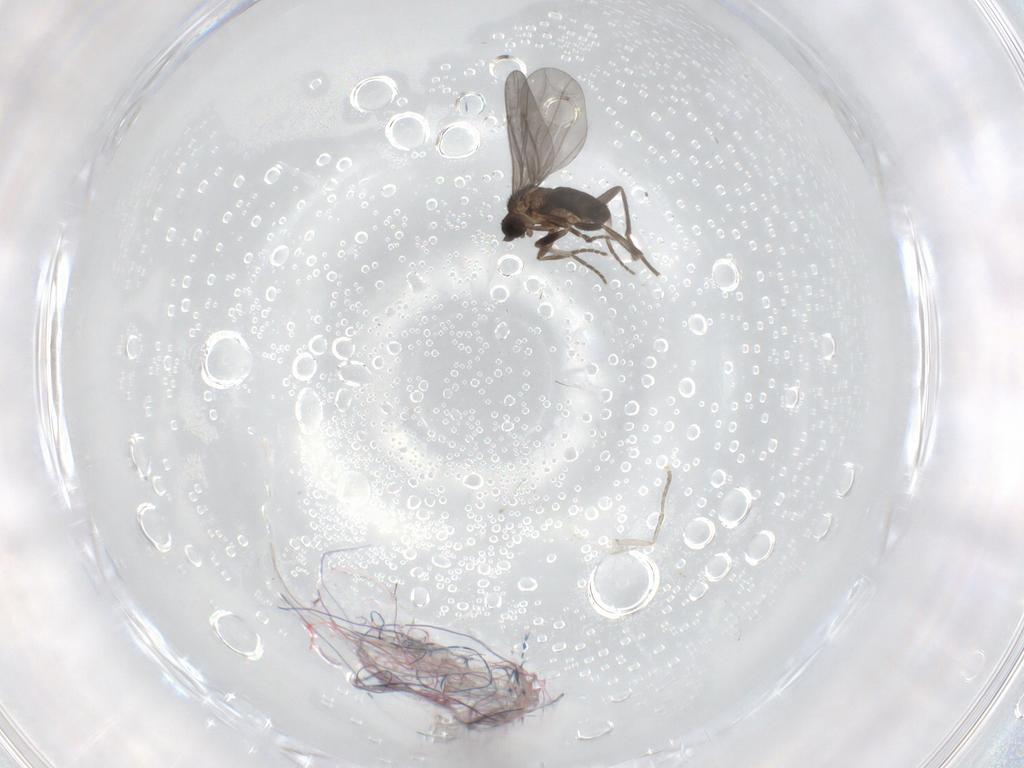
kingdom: Animalia
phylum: Arthropoda
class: Insecta
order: Diptera
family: Phoridae
